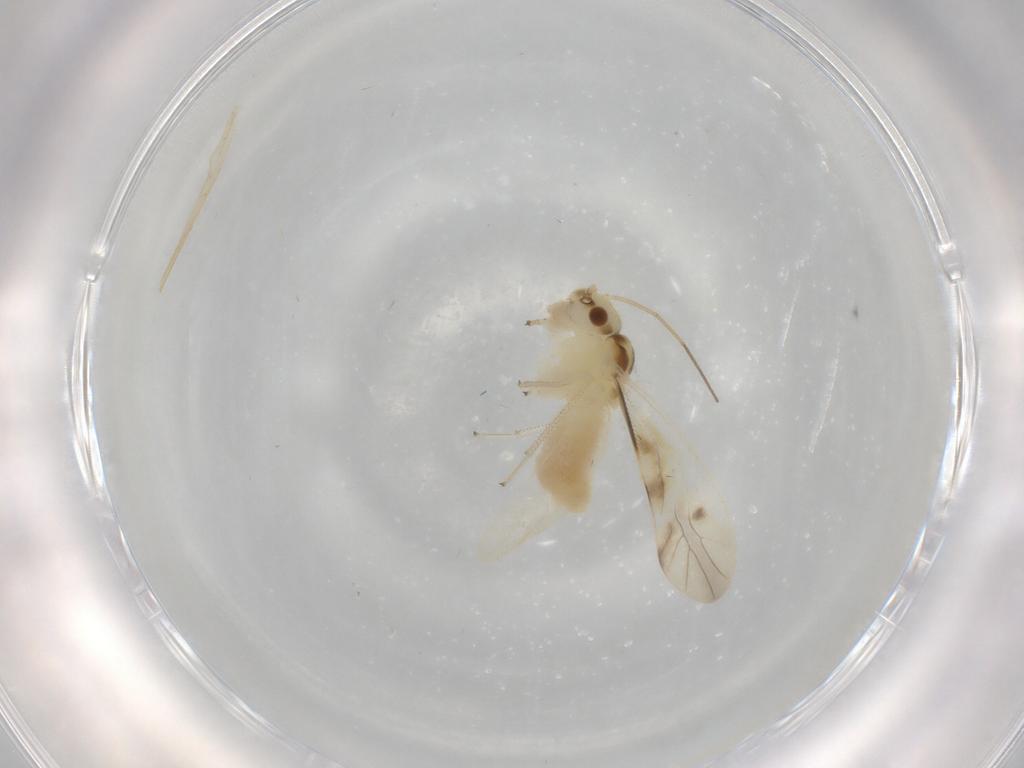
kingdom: Animalia
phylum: Arthropoda
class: Insecta
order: Psocodea
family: Caeciliusidae
